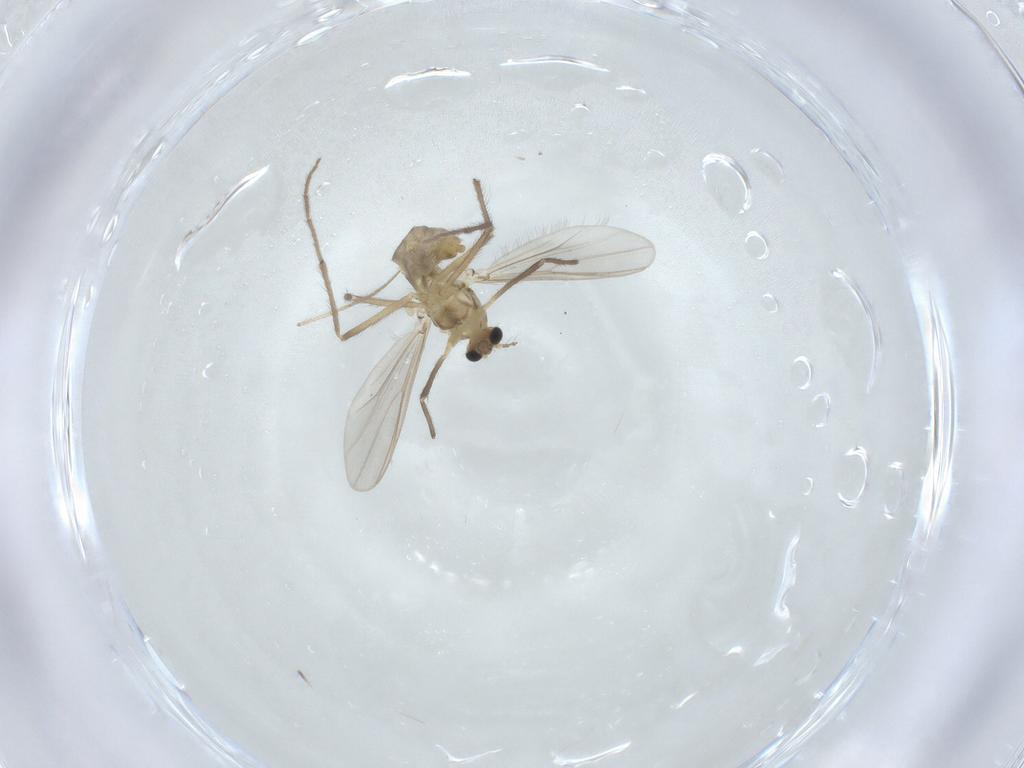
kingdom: Animalia
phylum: Arthropoda
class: Insecta
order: Diptera
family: Chironomidae
